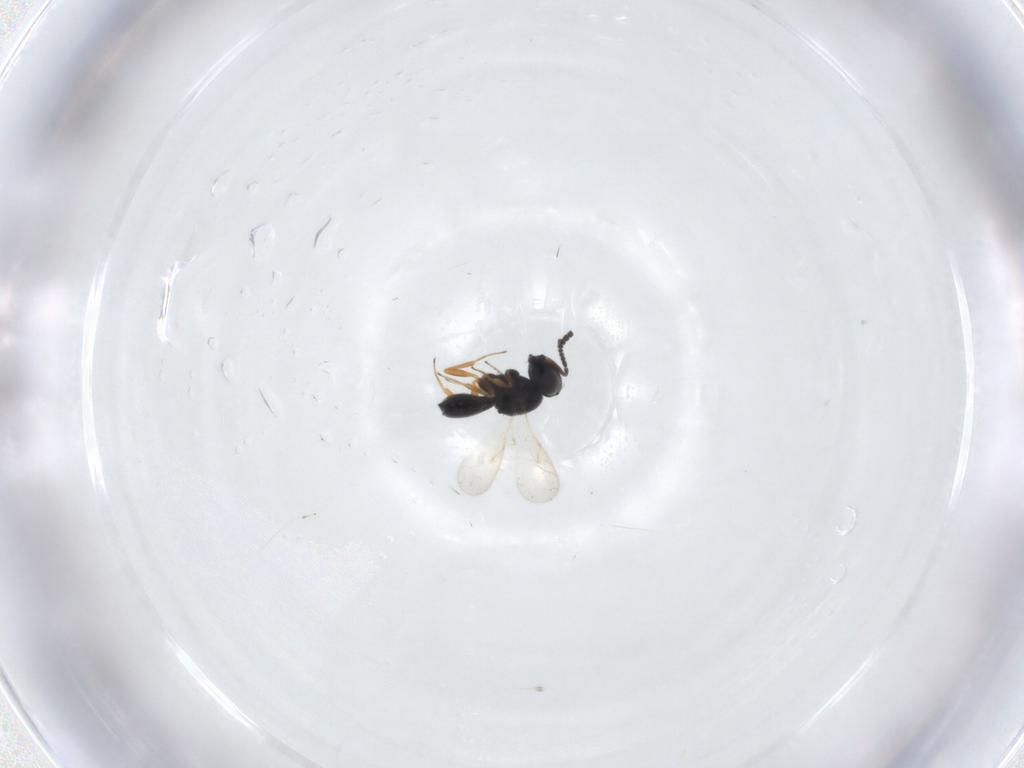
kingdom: Animalia
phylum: Arthropoda
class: Insecta
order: Hymenoptera
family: Scelionidae
